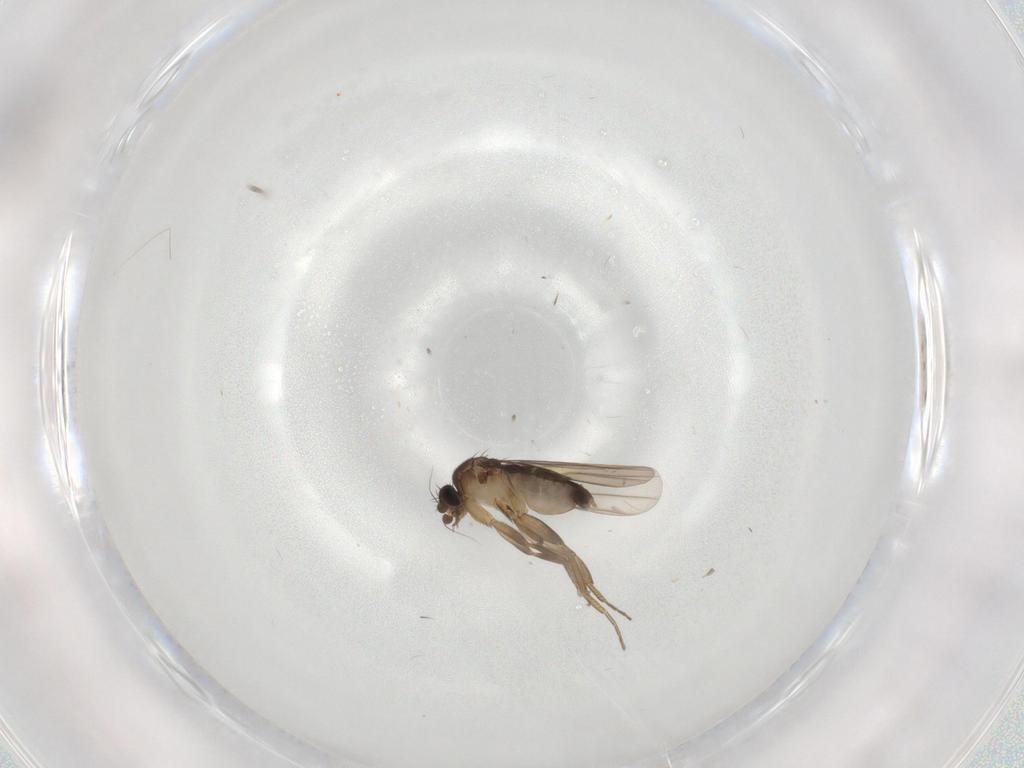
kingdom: Animalia
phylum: Arthropoda
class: Insecta
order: Diptera
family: Phoridae
